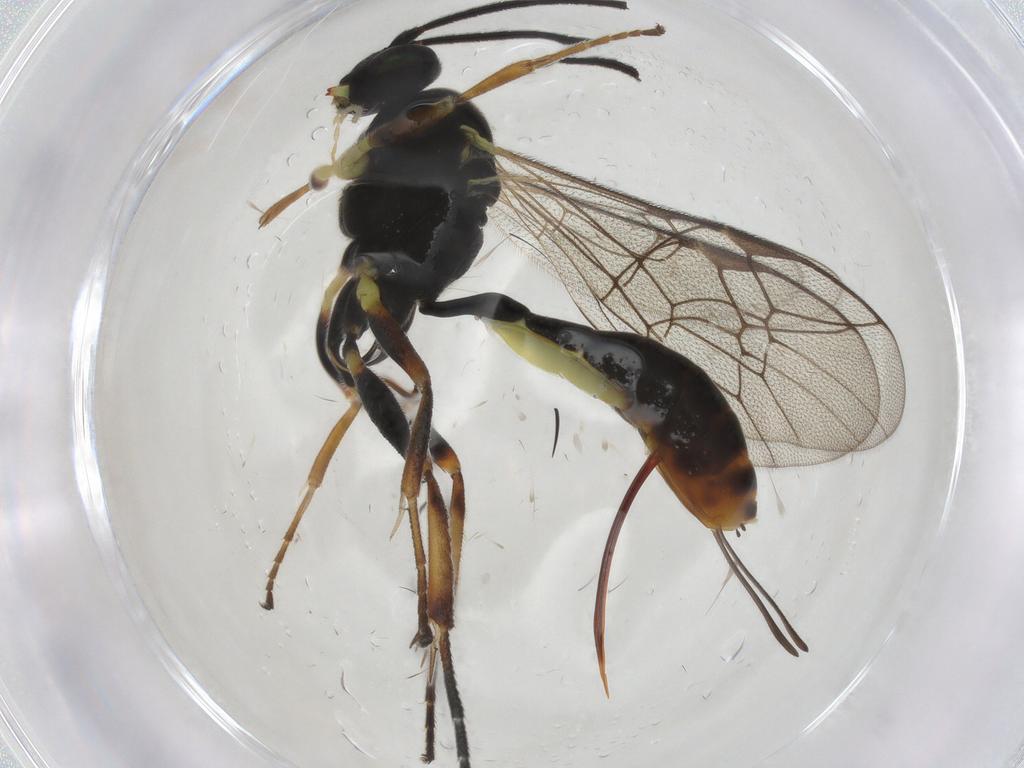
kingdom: Animalia
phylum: Arthropoda
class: Insecta
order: Hymenoptera
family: Ichneumonidae
